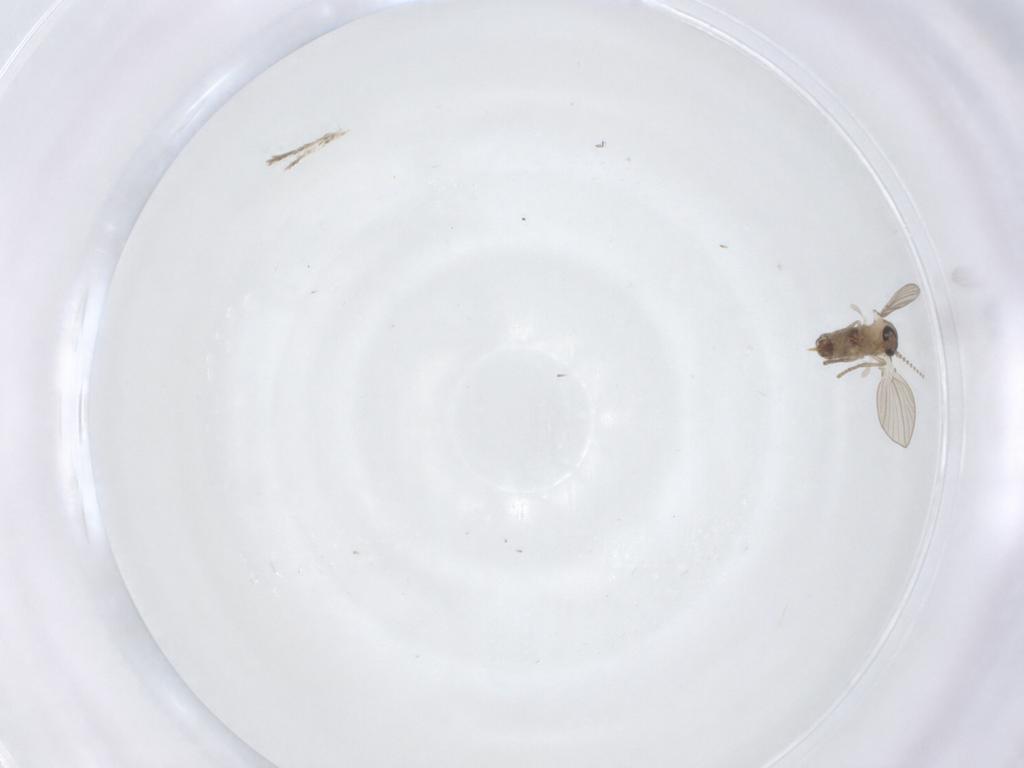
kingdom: Animalia
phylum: Arthropoda
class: Insecta
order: Diptera
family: Psychodidae
